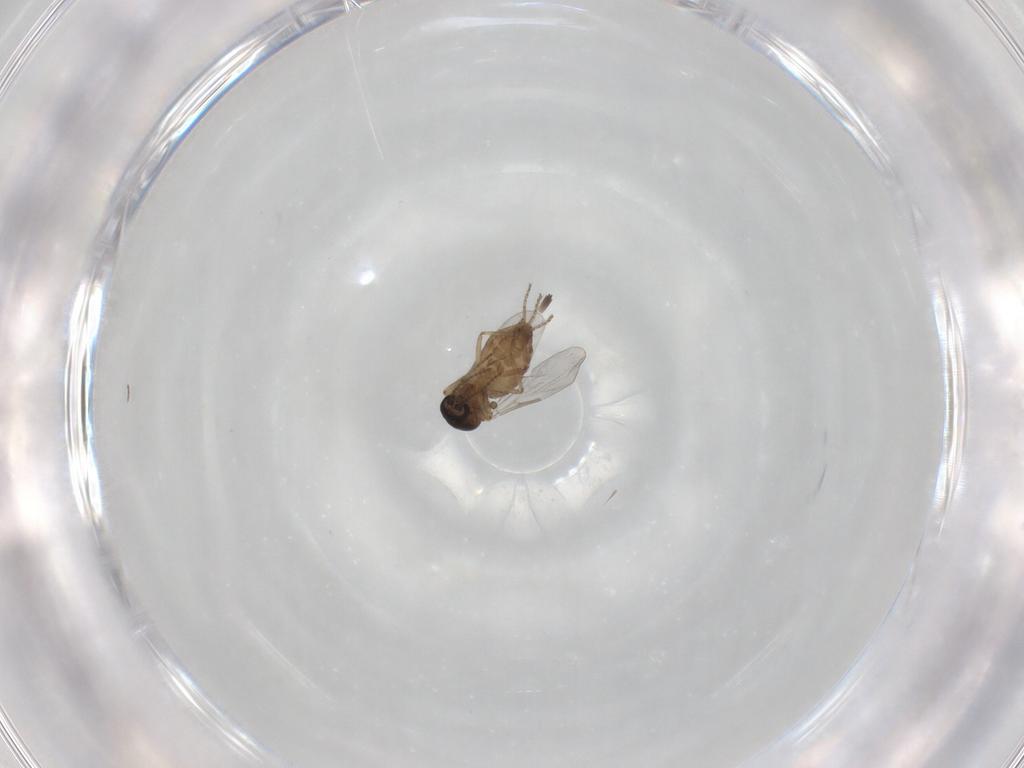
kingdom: Animalia
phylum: Arthropoda
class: Insecta
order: Diptera
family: Ceratopogonidae
